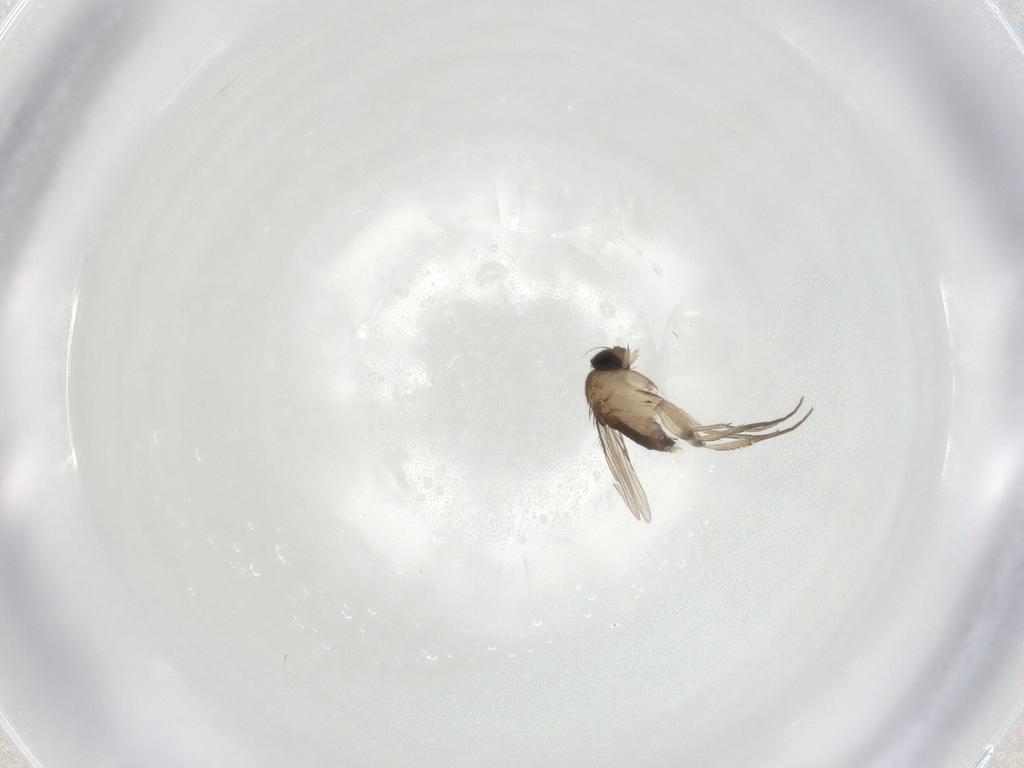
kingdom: Animalia
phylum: Arthropoda
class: Insecta
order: Diptera
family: Phoridae
